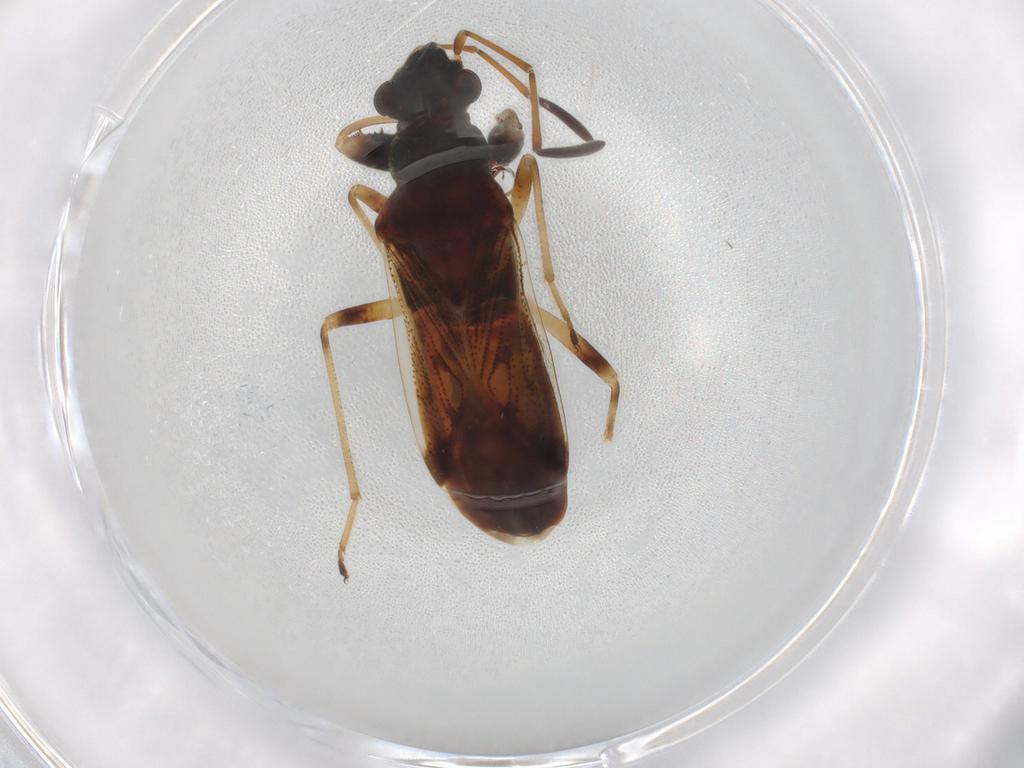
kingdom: Animalia
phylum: Arthropoda
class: Insecta
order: Hemiptera
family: Rhyparochromidae
